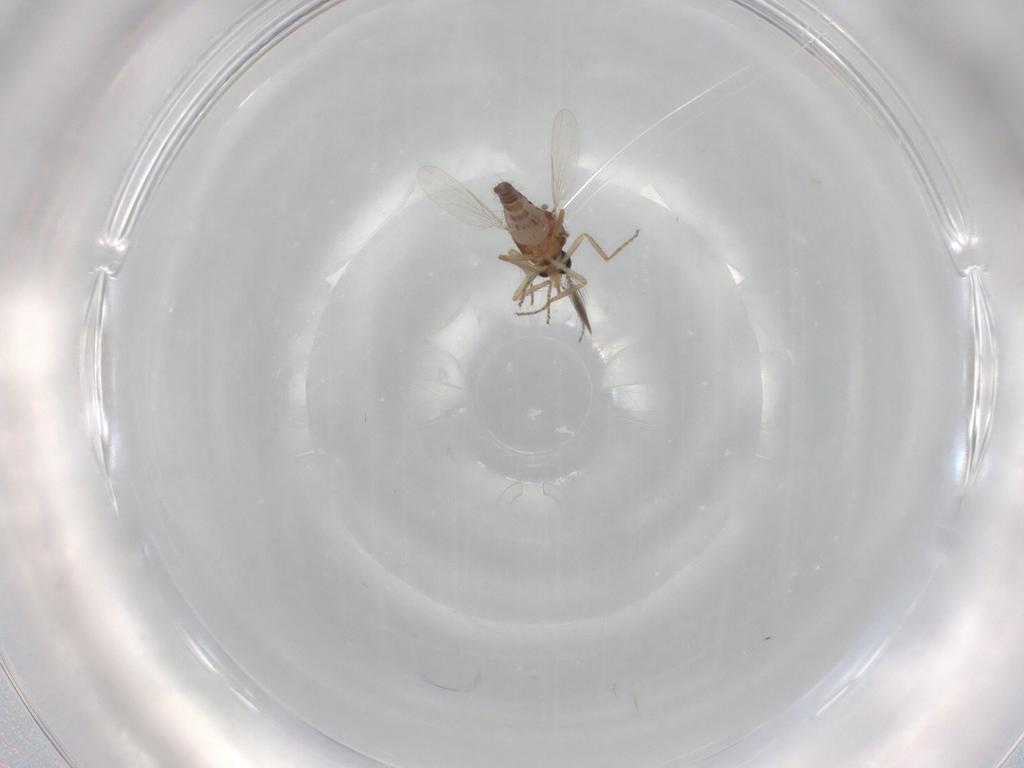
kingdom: Animalia
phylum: Arthropoda
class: Insecta
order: Diptera
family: Ceratopogonidae
